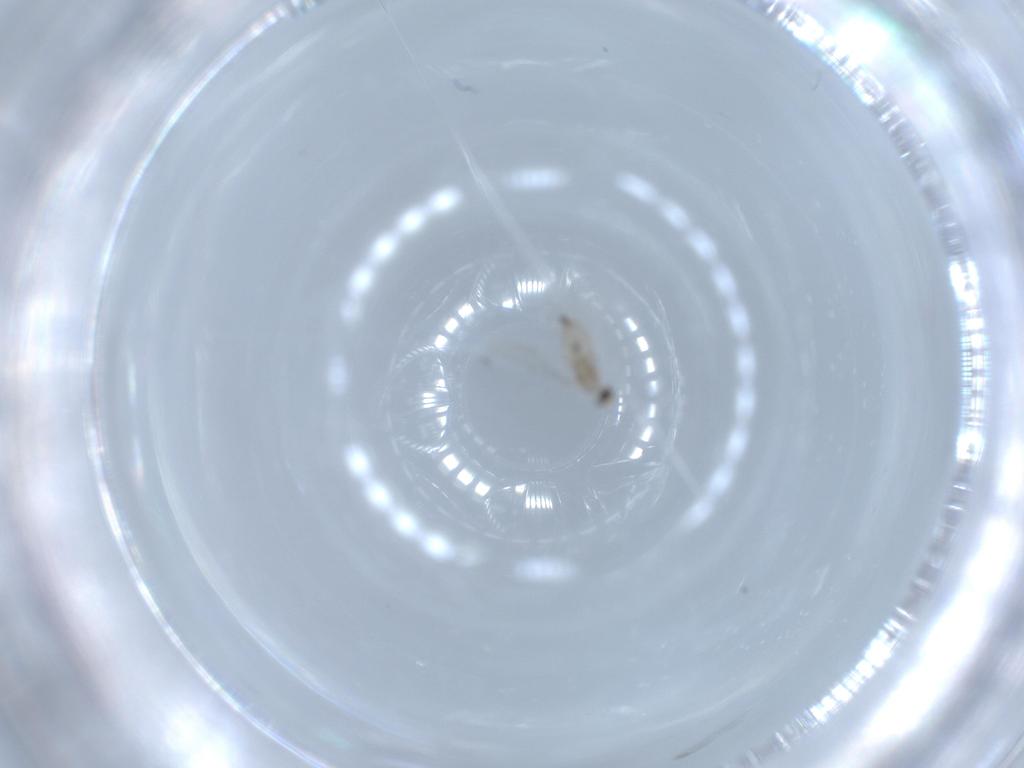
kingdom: Animalia
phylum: Arthropoda
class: Insecta
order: Diptera
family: Cecidomyiidae
